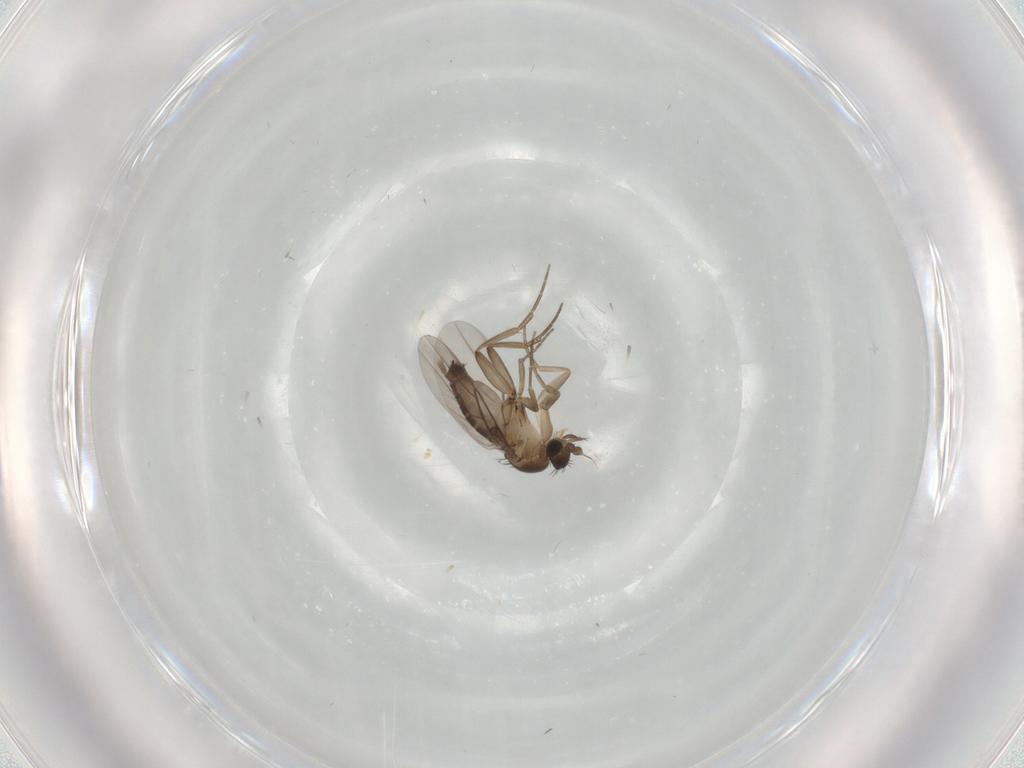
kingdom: Animalia
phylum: Arthropoda
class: Insecta
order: Diptera
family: Phoridae
